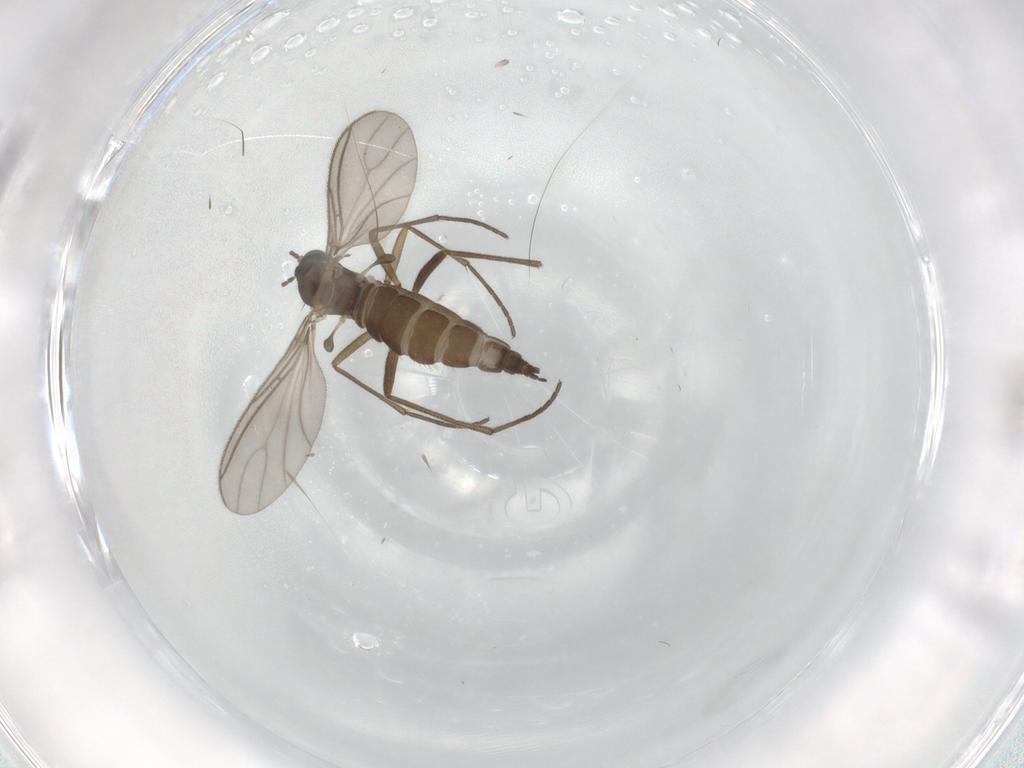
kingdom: Animalia
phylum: Arthropoda
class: Insecta
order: Diptera
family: Sciaridae
